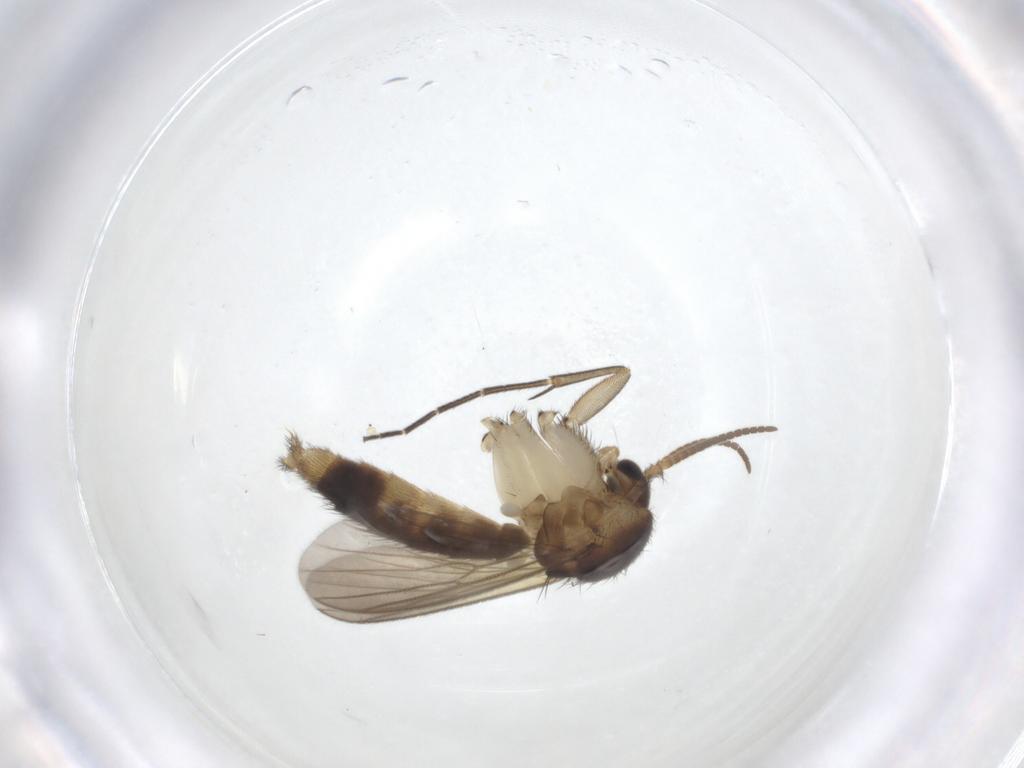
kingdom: Animalia
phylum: Arthropoda
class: Insecta
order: Diptera
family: Mycetophilidae
